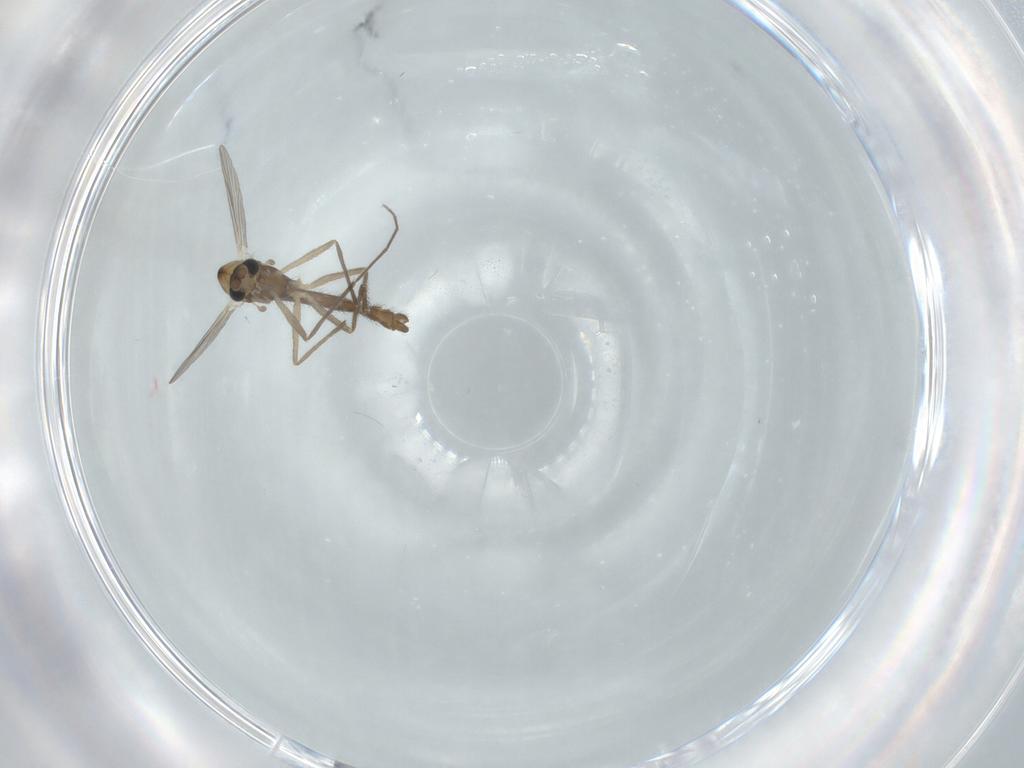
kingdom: Animalia
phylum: Arthropoda
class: Insecta
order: Diptera
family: Chironomidae
